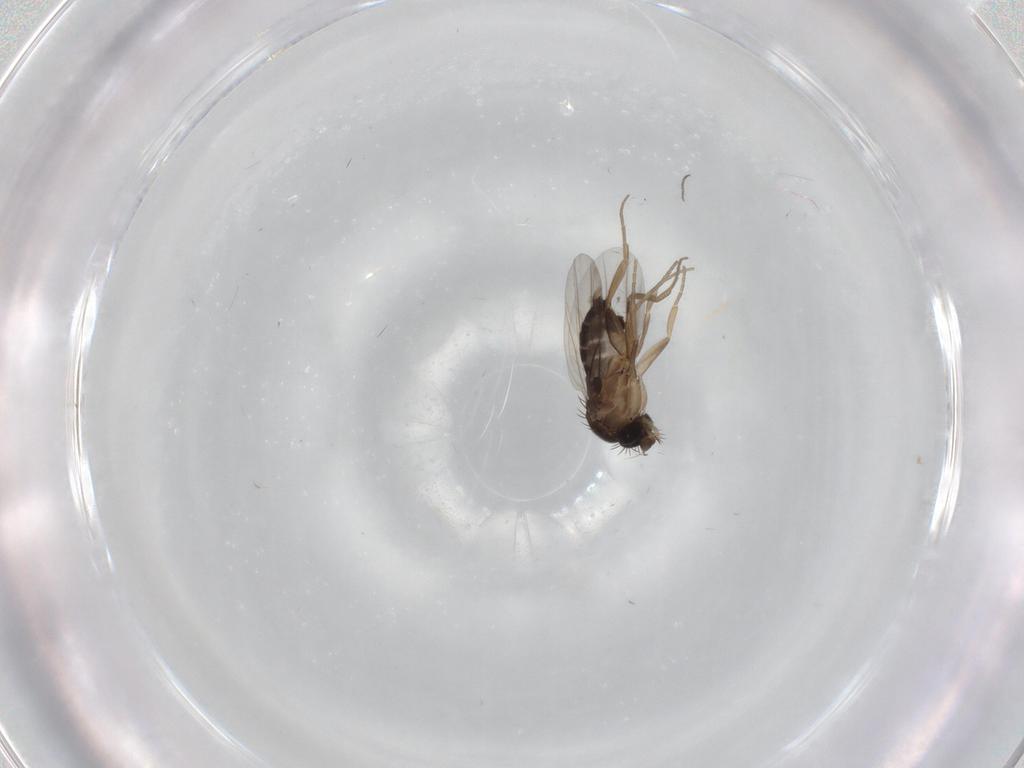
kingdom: Animalia
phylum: Arthropoda
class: Insecta
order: Diptera
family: Phoridae
